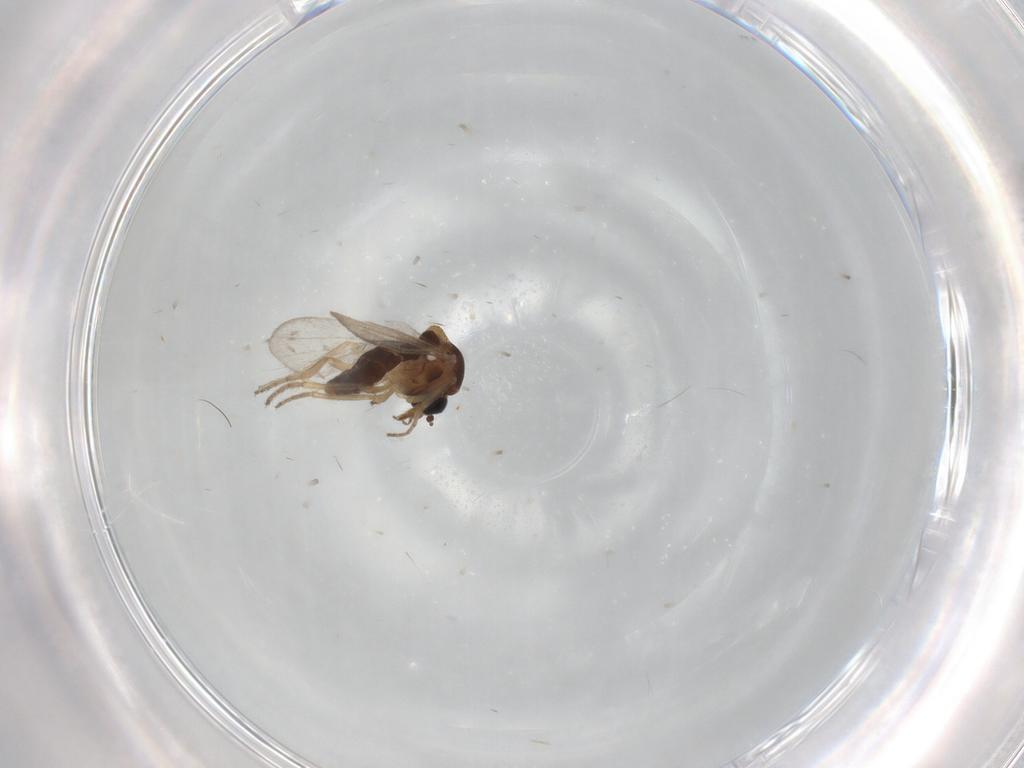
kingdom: Animalia
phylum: Arthropoda
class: Insecta
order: Diptera
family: Ceratopogonidae
